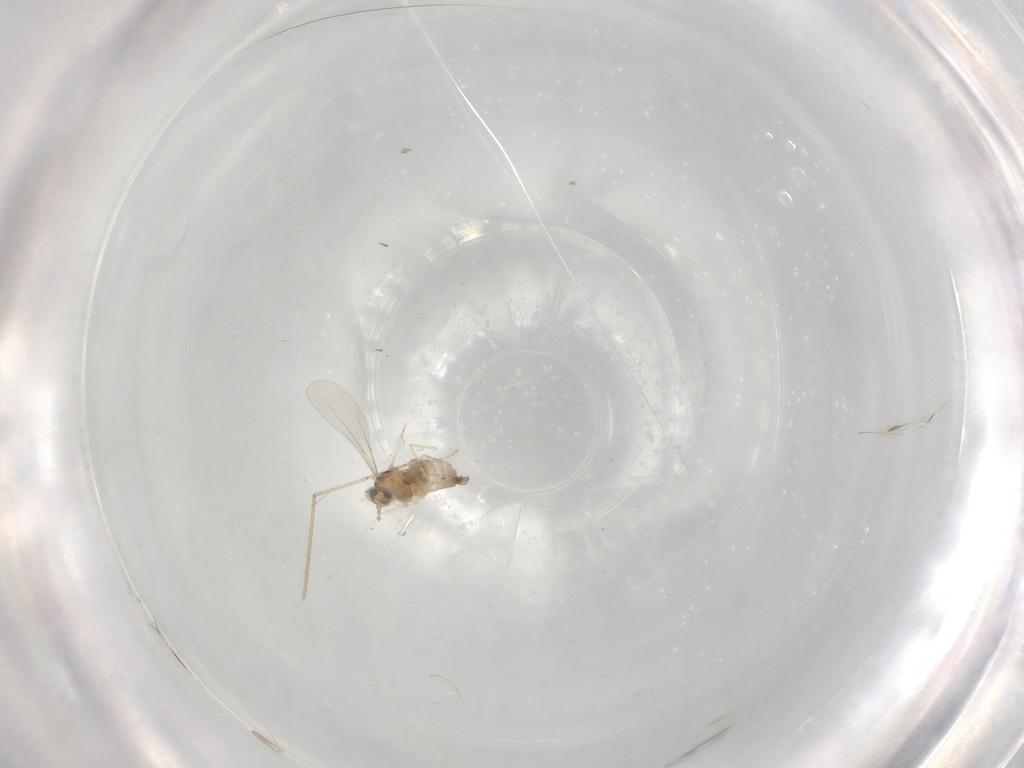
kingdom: Animalia
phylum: Arthropoda
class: Insecta
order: Diptera
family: Cecidomyiidae
